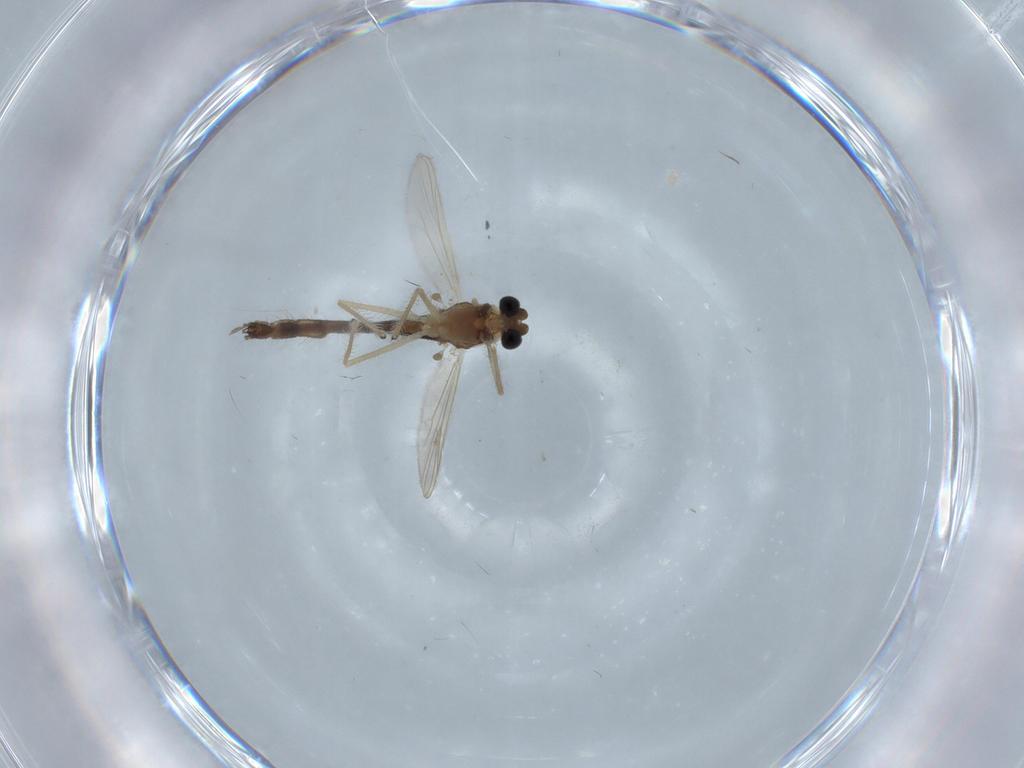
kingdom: Animalia
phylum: Arthropoda
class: Insecta
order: Diptera
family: Chironomidae
